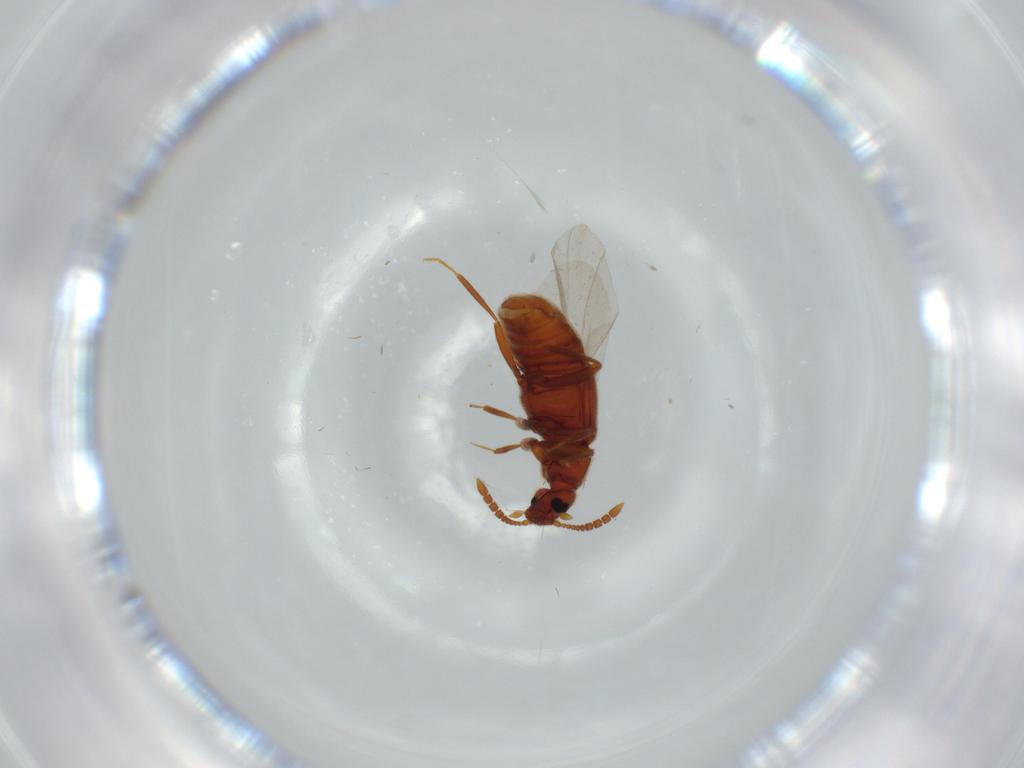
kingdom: Animalia
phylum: Arthropoda
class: Insecta
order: Coleoptera
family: Staphylinidae
